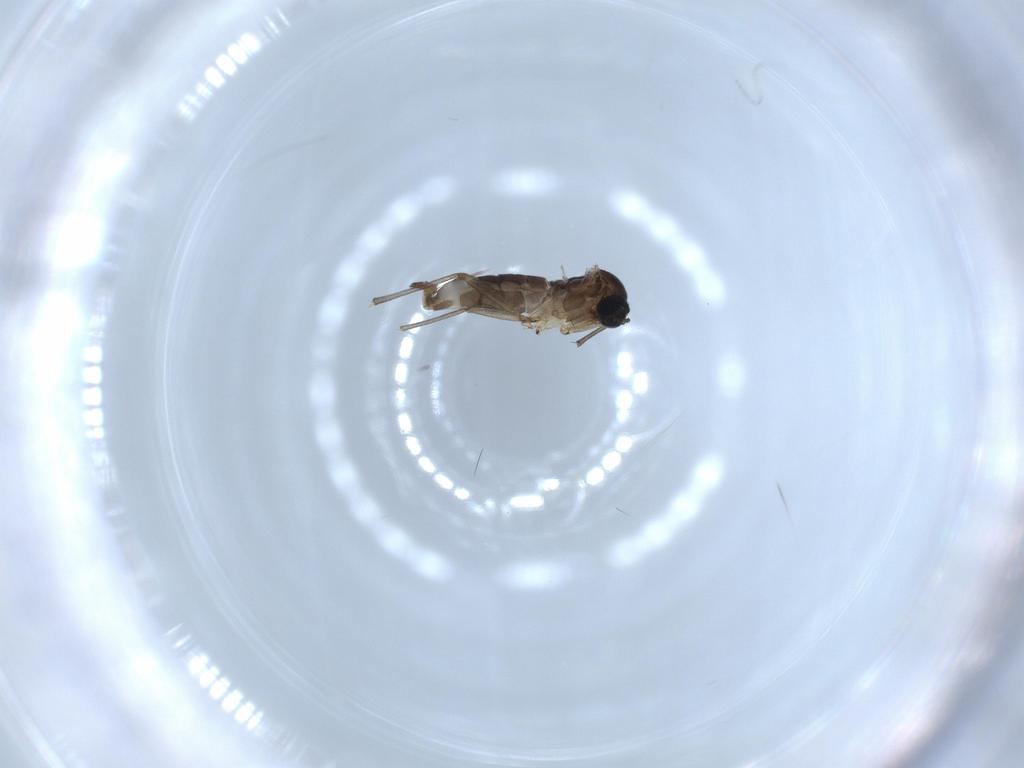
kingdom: Animalia
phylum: Arthropoda
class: Insecta
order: Diptera
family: Sciaridae
